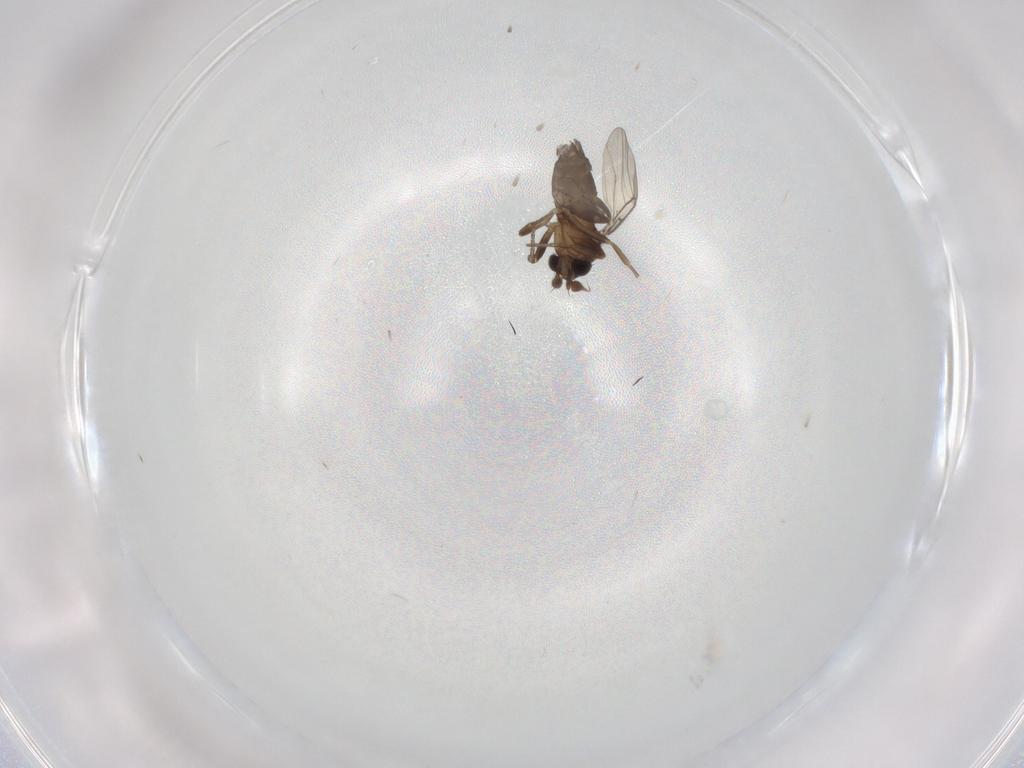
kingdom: Animalia
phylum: Arthropoda
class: Insecta
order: Diptera
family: Phoridae
